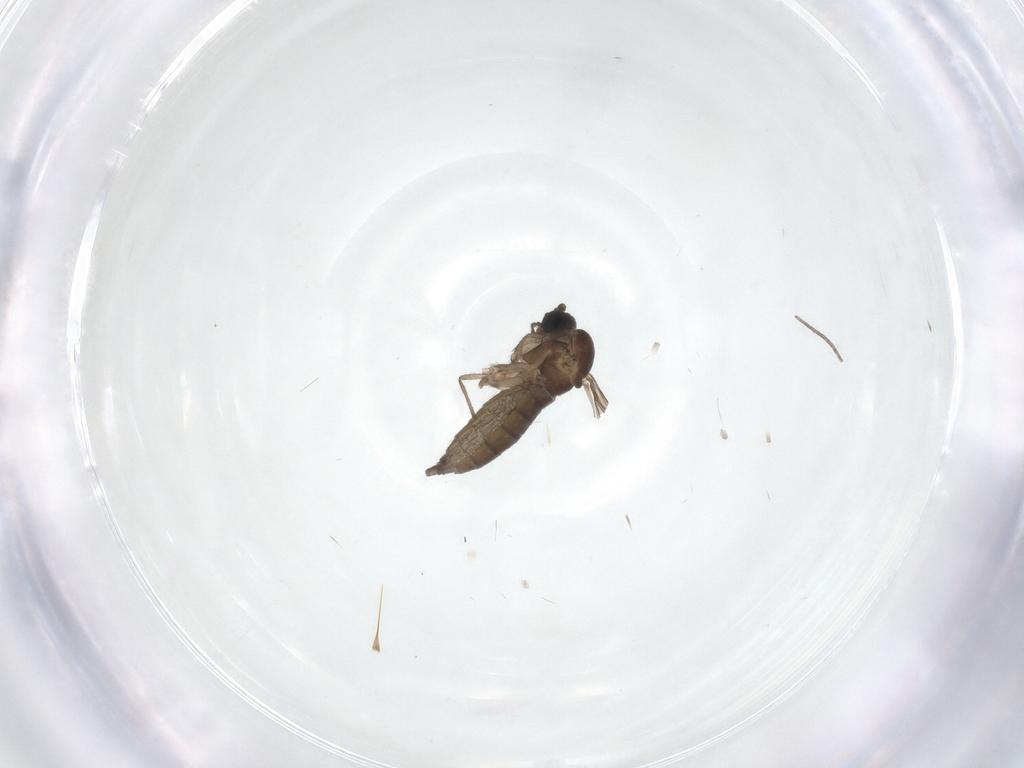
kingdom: Animalia
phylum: Arthropoda
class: Insecta
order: Diptera
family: Sciaridae
